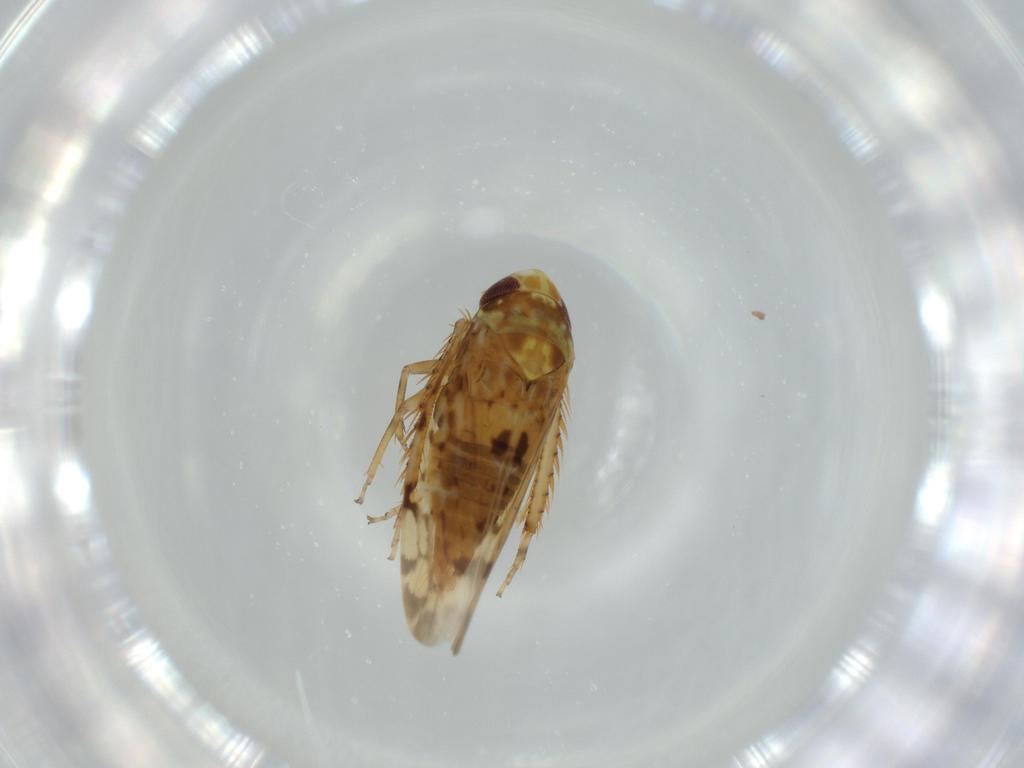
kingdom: Animalia
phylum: Arthropoda
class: Insecta
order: Hemiptera
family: Cicadellidae
